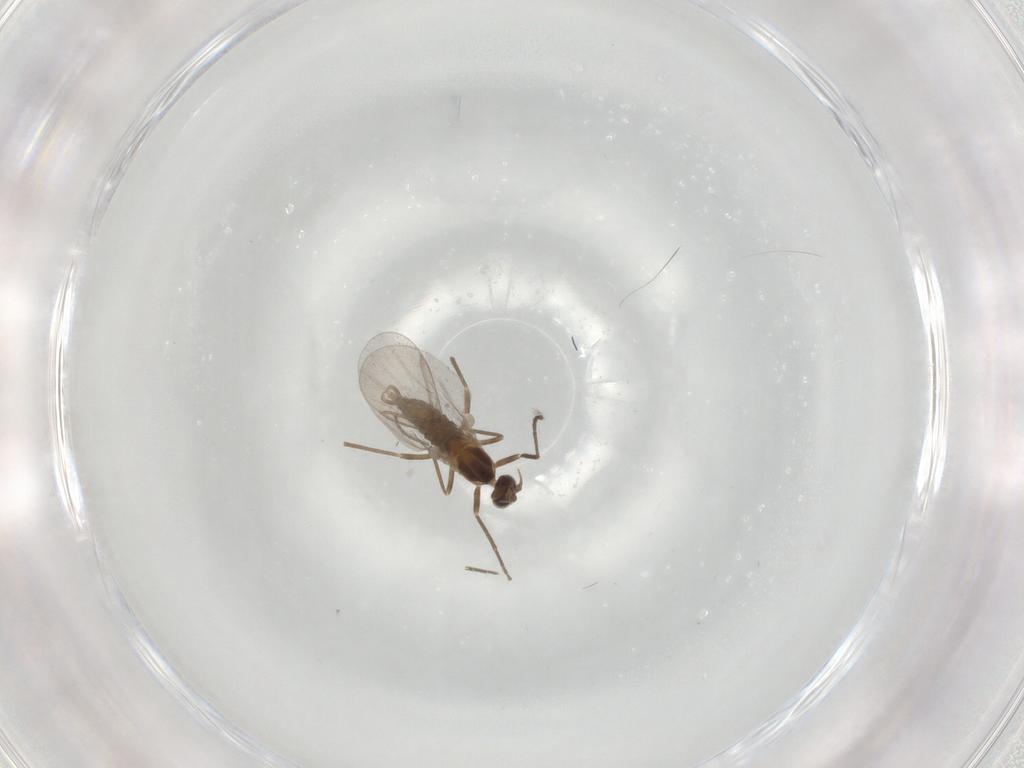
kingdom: Animalia
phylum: Arthropoda
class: Insecta
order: Diptera
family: Cecidomyiidae
